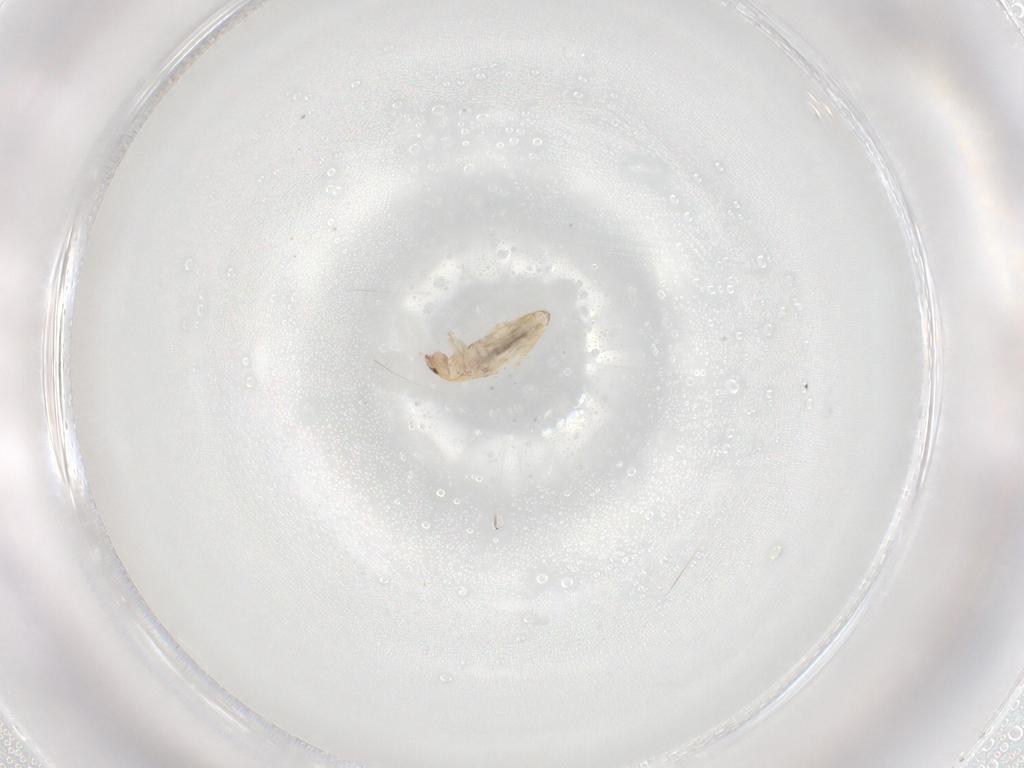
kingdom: Animalia
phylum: Arthropoda
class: Collembola
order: Entomobryomorpha
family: Entomobryidae
